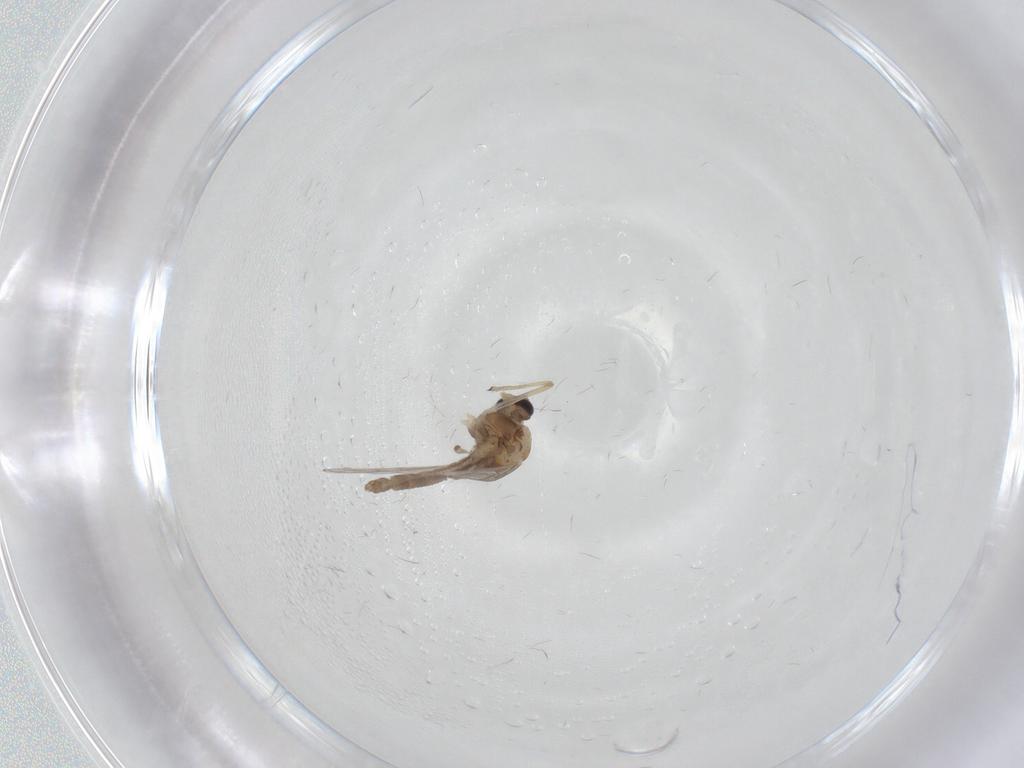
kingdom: Animalia
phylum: Arthropoda
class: Insecta
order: Diptera
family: Chironomidae
